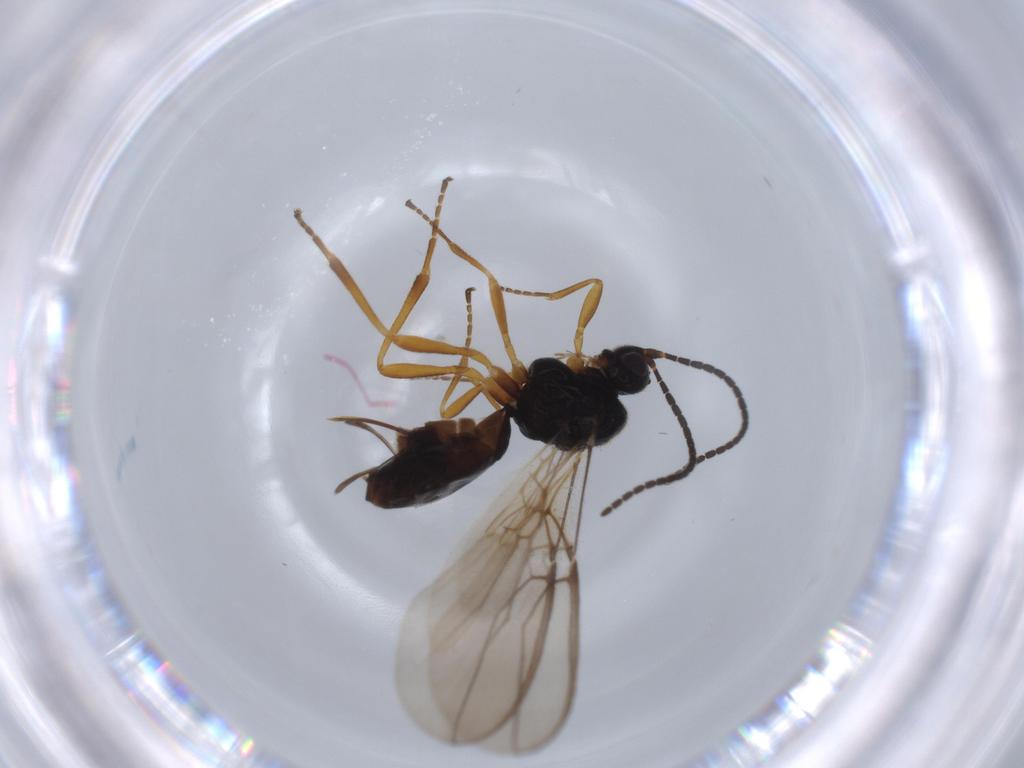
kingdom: Animalia
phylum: Arthropoda
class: Insecta
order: Hymenoptera
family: Braconidae
